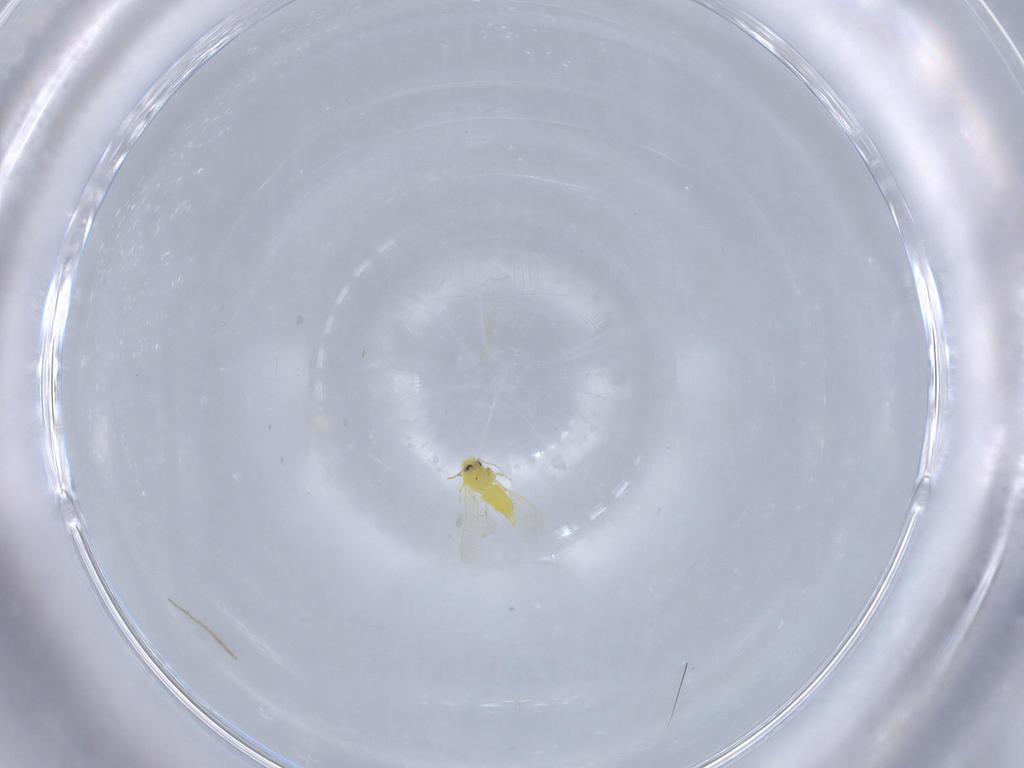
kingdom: Animalia
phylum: Arthropoda
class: Insecta
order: Hemiptera
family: Aleyrodidae
